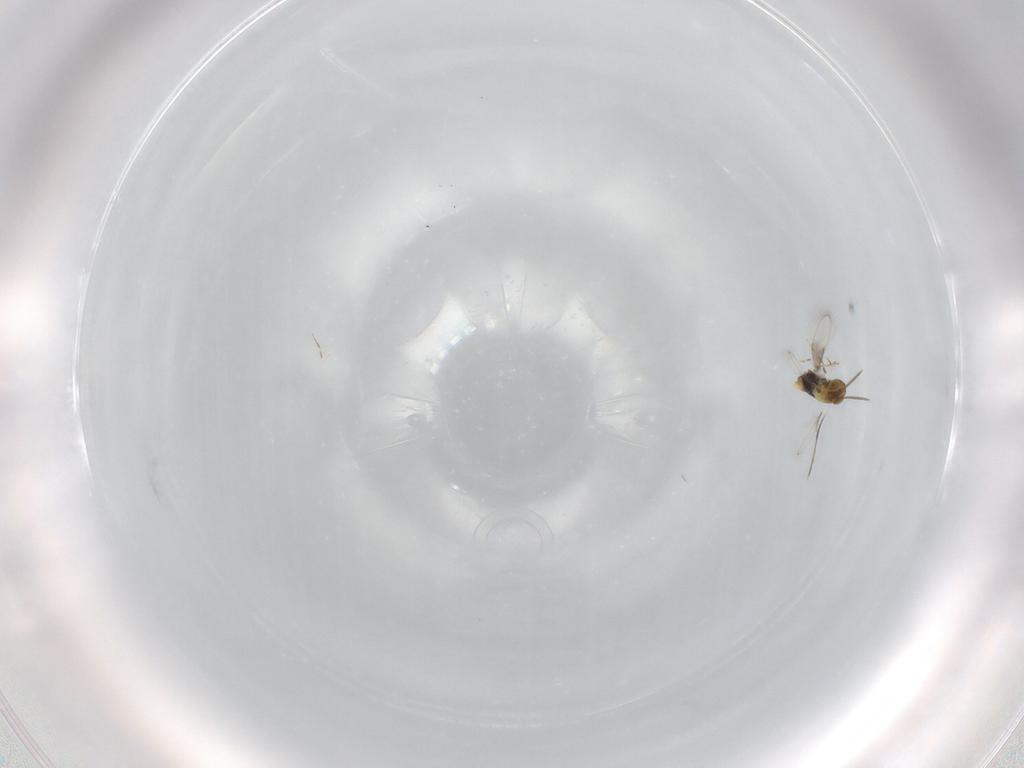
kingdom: Animalia
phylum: Arthropoda
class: Insecta
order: Hymenoptera
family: Aphelinidae
